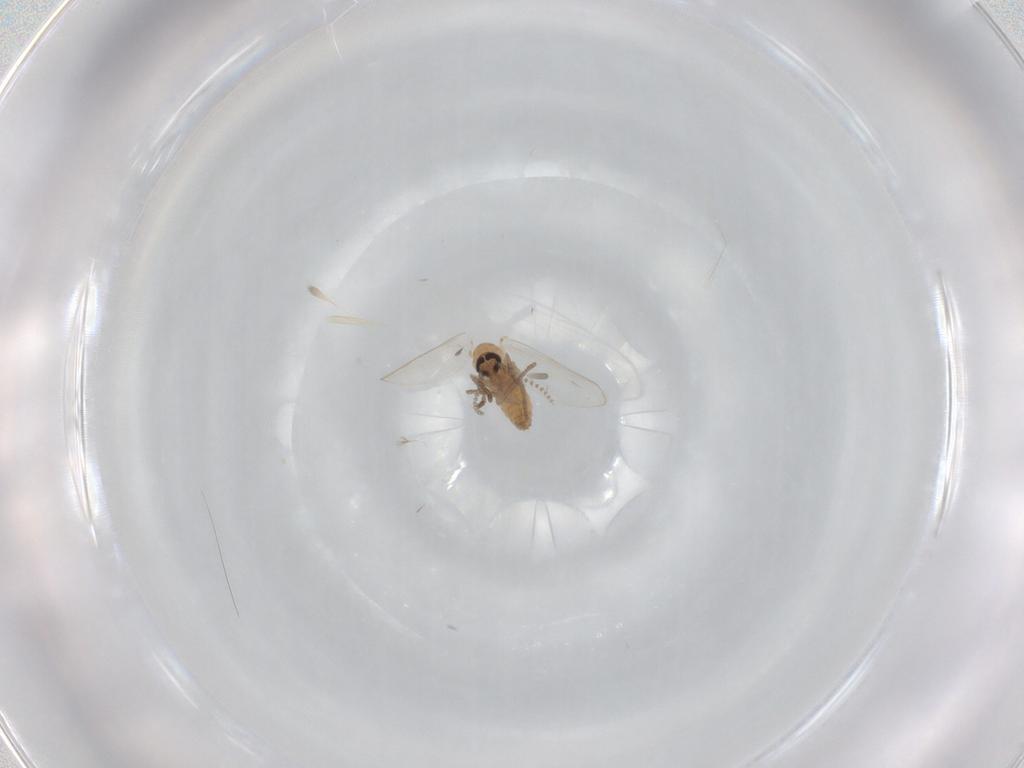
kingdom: Animalia
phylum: Arthropoda
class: Insecta
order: Diptera
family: Psychodidae
